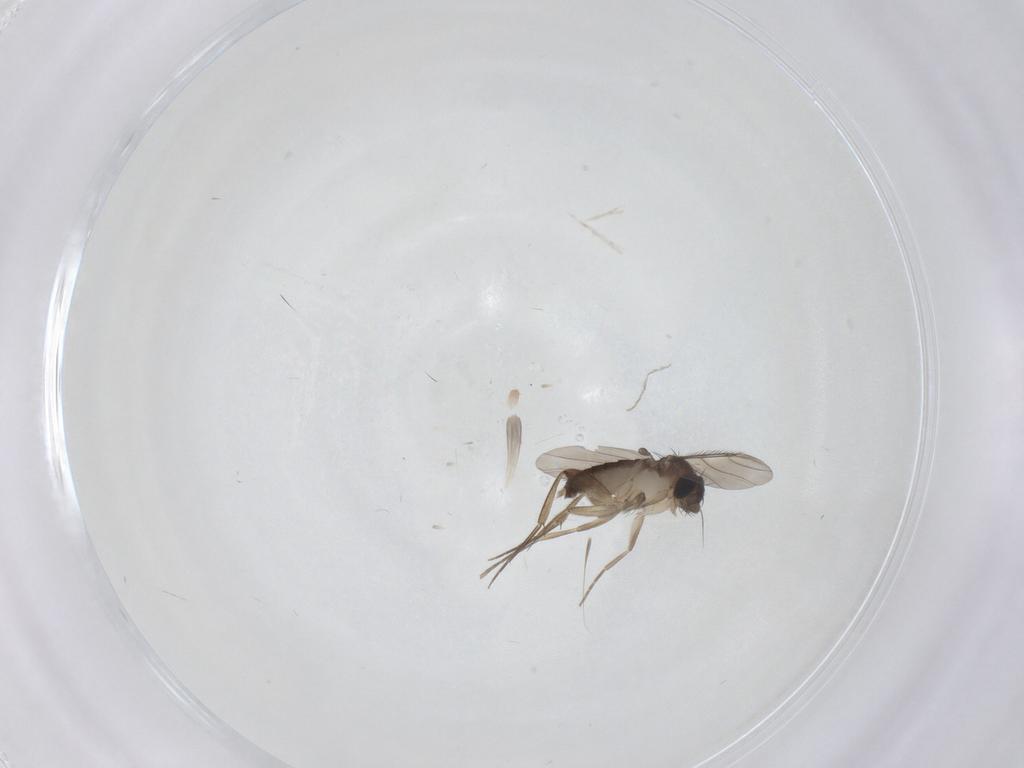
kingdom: Animalia
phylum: Arthropoda
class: Insecta
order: Diptera
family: Phoridae
